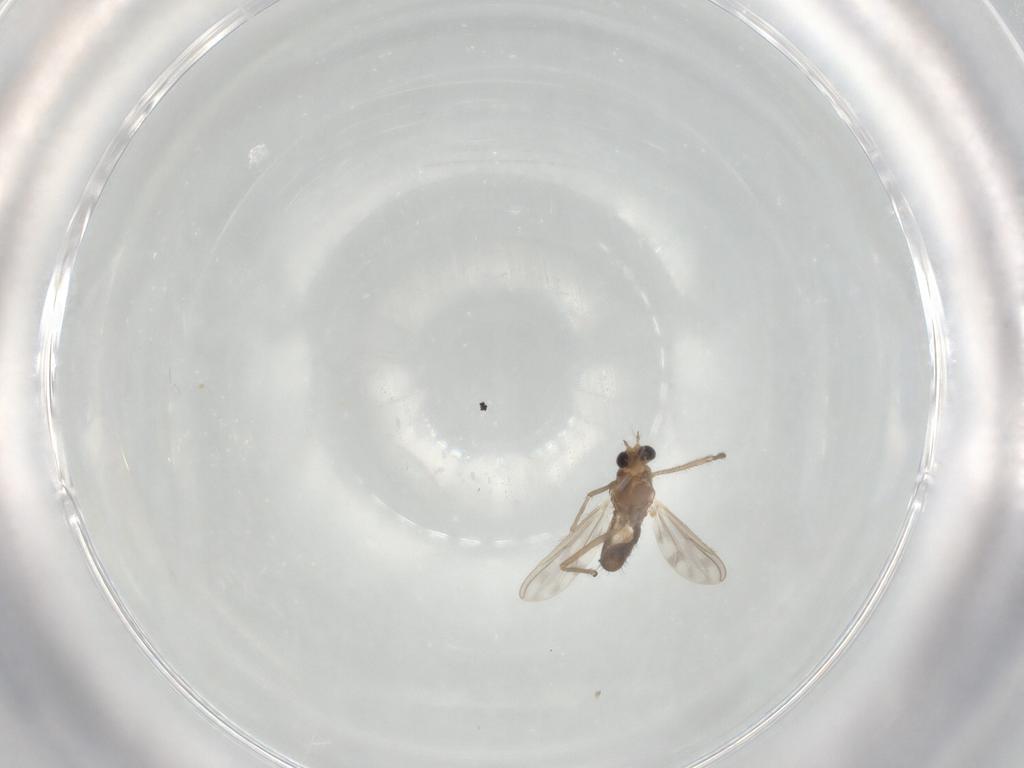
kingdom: Animalia
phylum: Arthropoda
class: Insecta
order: Diptera
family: Chironomidae
